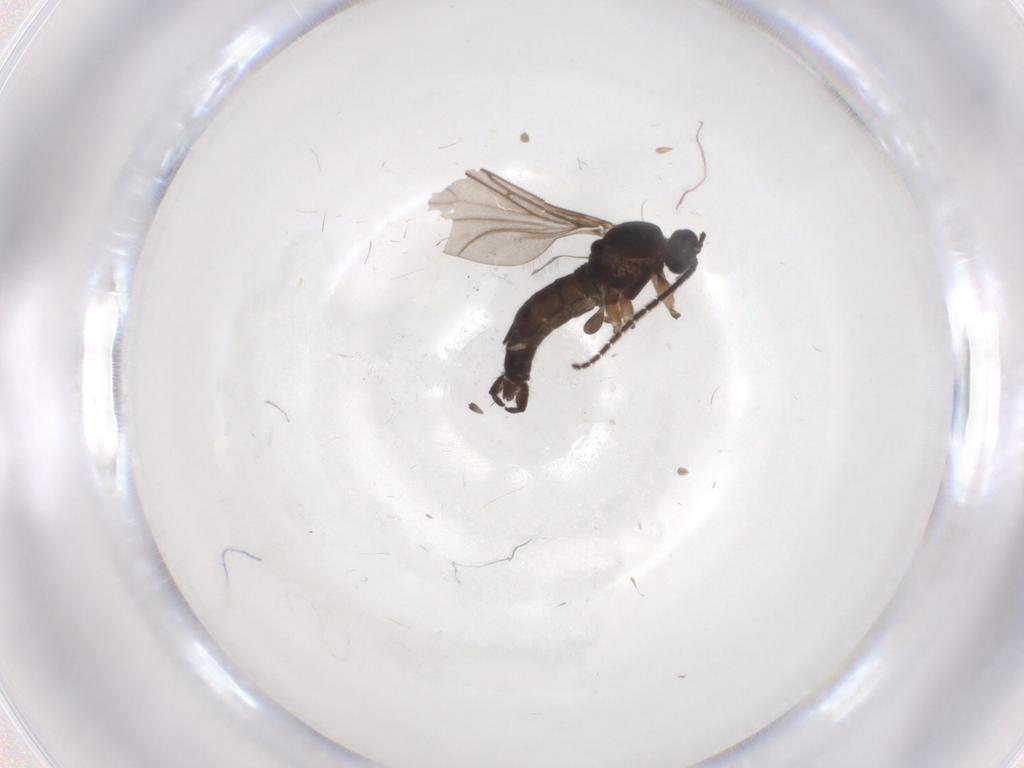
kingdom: Animalia
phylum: Arthropoda
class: Insecta
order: Diptera
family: Sciaridae
